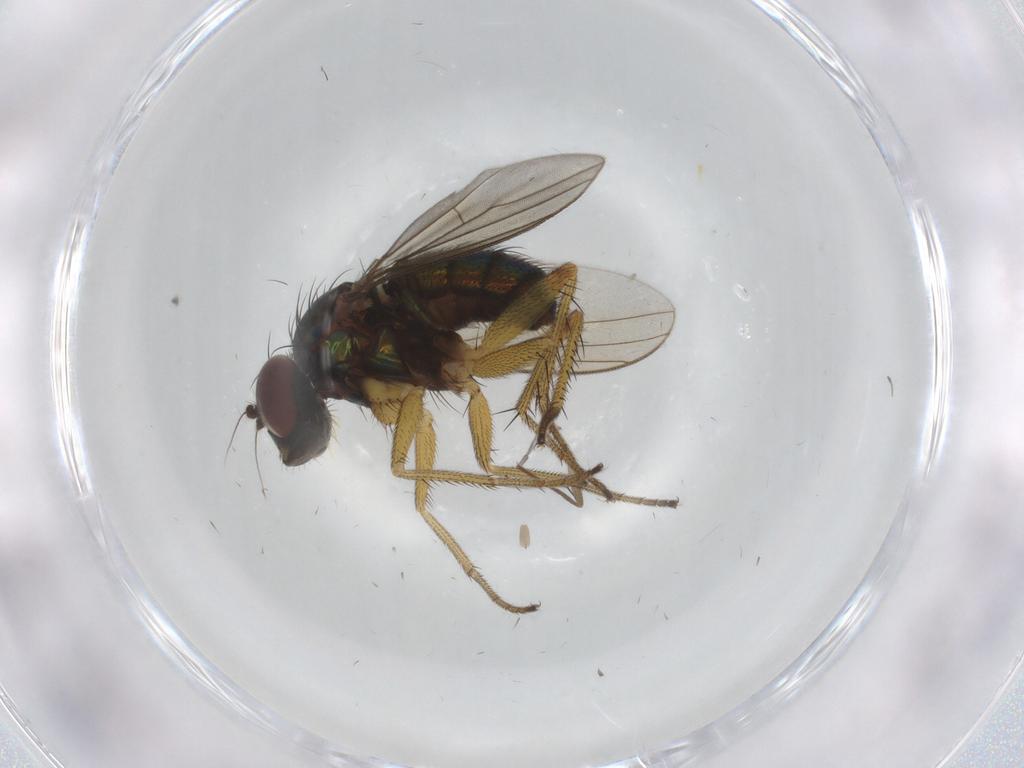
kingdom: Animalia
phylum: Arthropoda
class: Insecta
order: Diptera
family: Dolichopodidae
